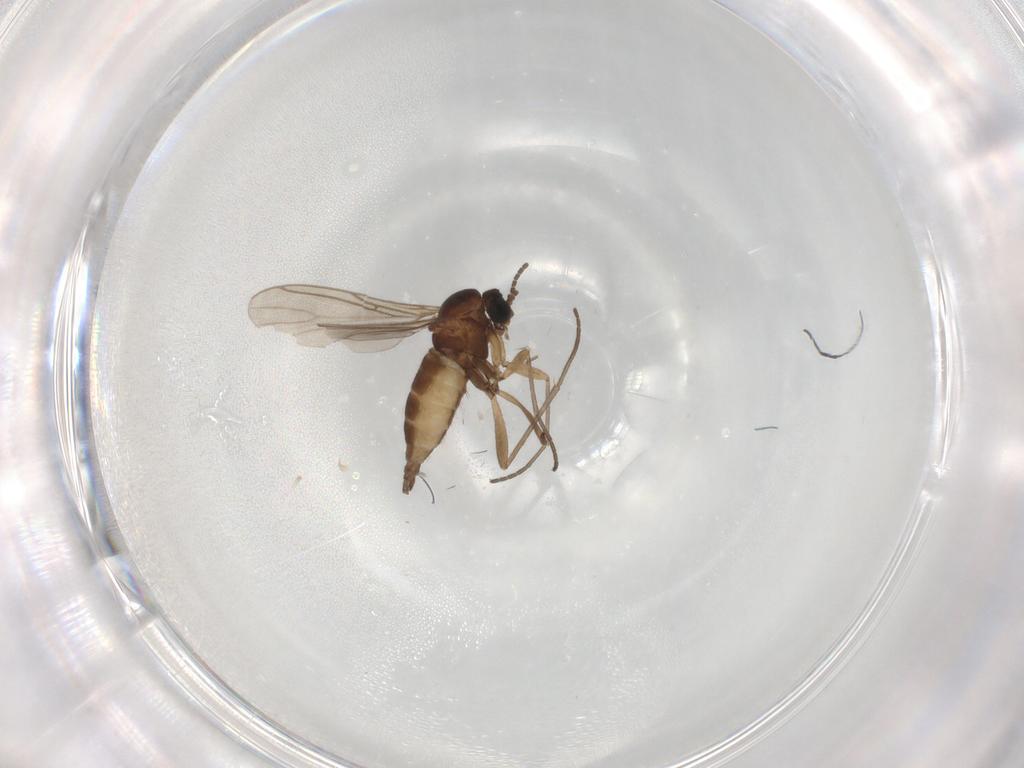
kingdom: Animalia
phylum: Arthropoda
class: Insecta
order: Diptera
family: Sciaridae
